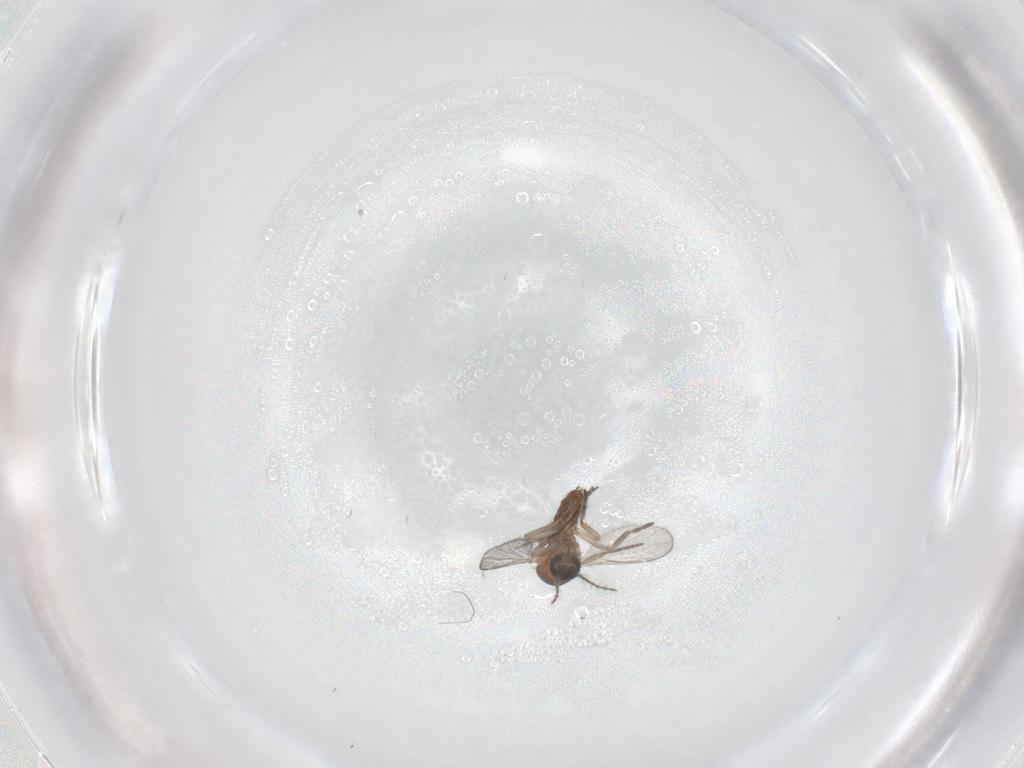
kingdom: Animalia
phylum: Arthropoda
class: Insecta
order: Diptera
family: Chironomidae
